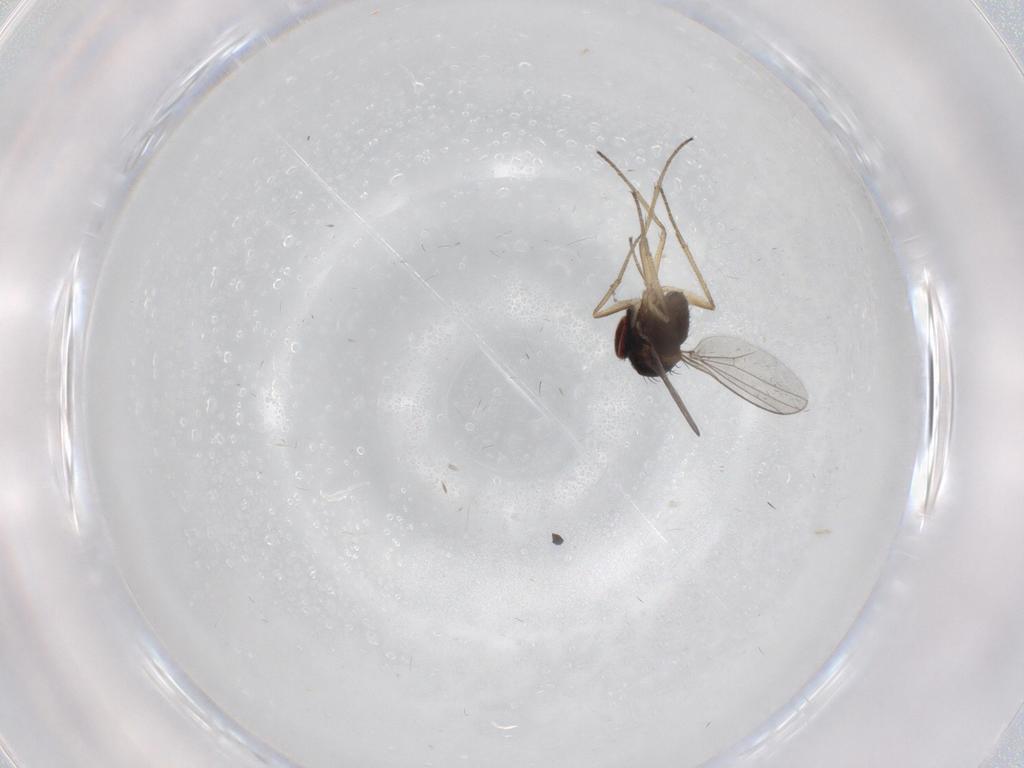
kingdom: Animalia
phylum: Arthropoda
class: Insecta
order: Diptera
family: Dolichopodidae
